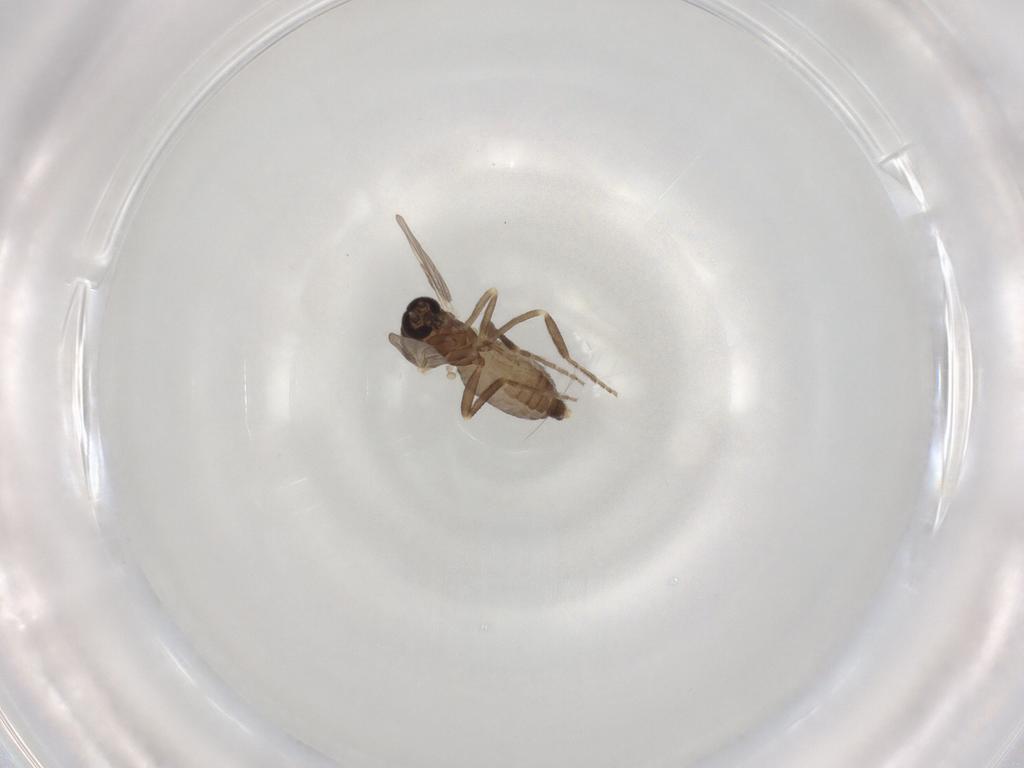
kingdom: Animalia
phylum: Arthropoda
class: Insecta
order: Diptera
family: Ceratopogonidae
